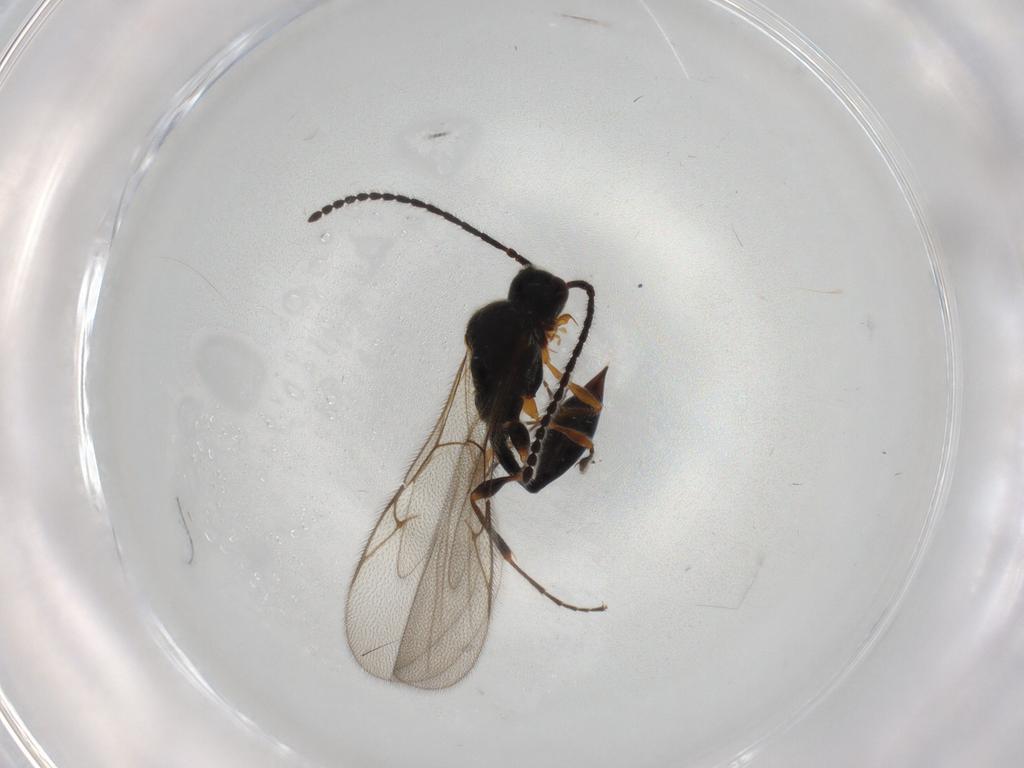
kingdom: Animalia
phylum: Arthropoda
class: Insecta
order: Hymenoptera
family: Diapriidae
